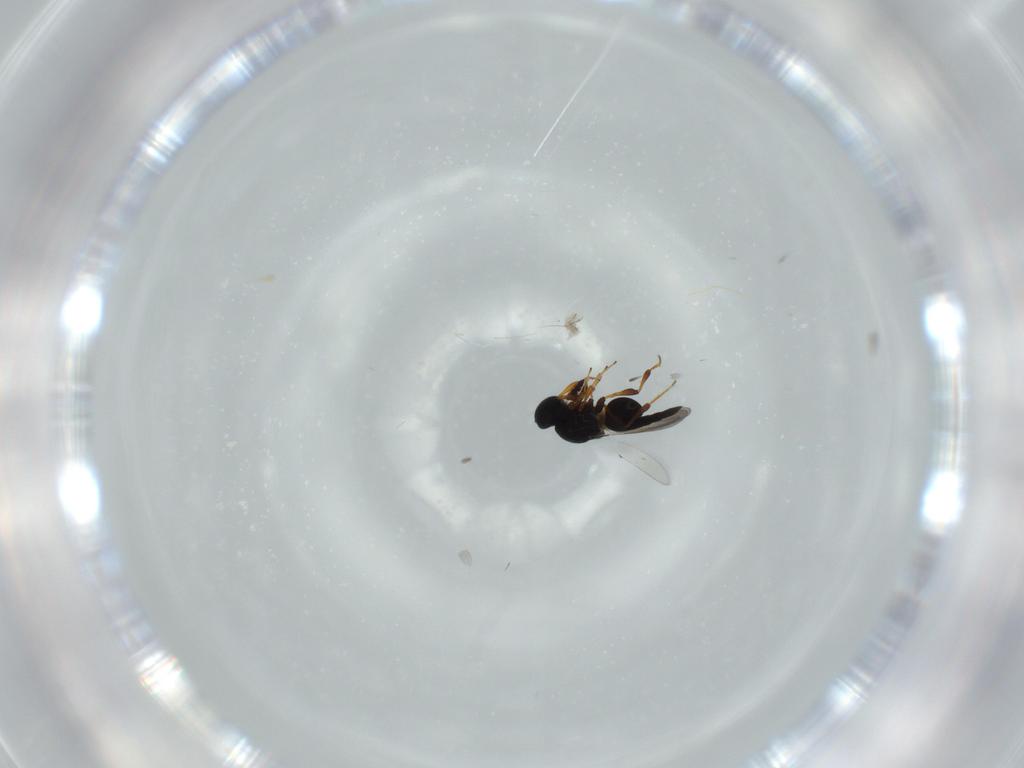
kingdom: Animalia
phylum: Arthropoda
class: Insecta
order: Hymenoptera
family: Platygastridae
